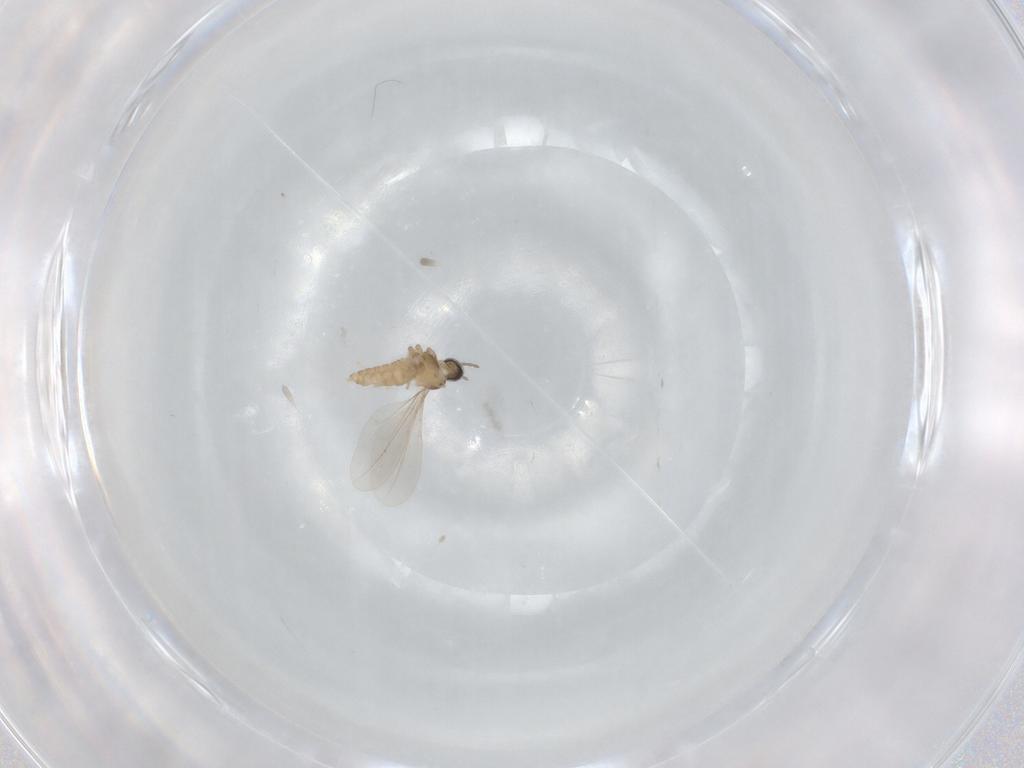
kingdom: Animalia
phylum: Arthropoda
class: Insecta
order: Diptera
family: Cecidomyiidae
